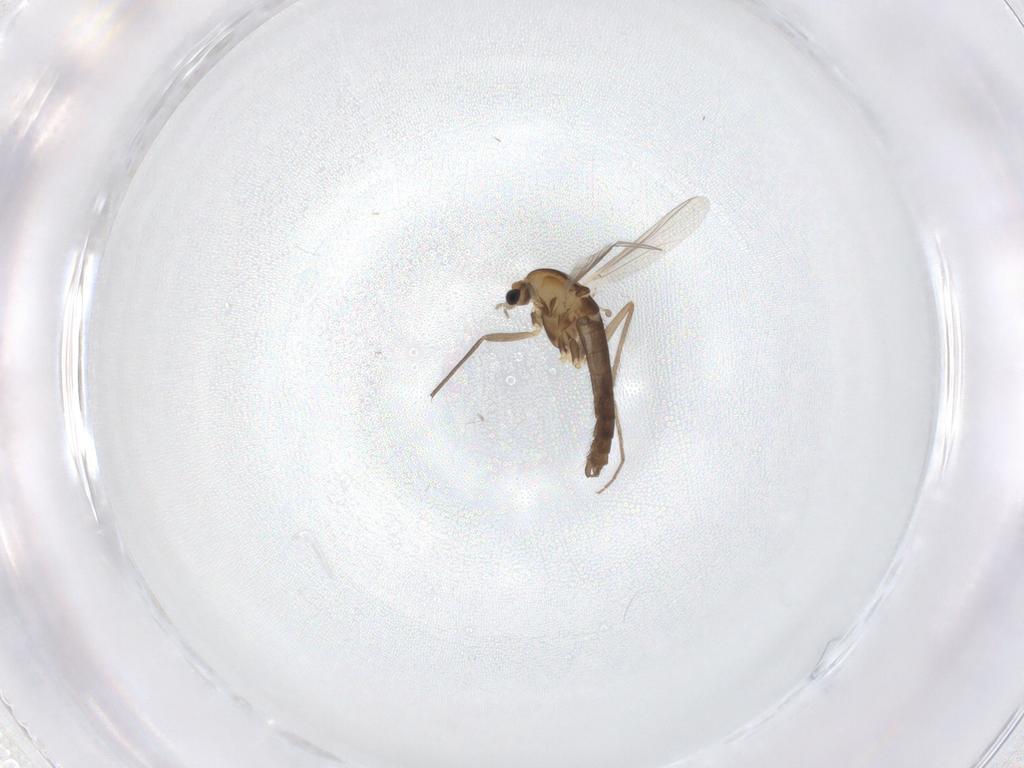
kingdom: Animalia
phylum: Arthropoda
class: Insecta
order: Diptera
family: Chironomidae
